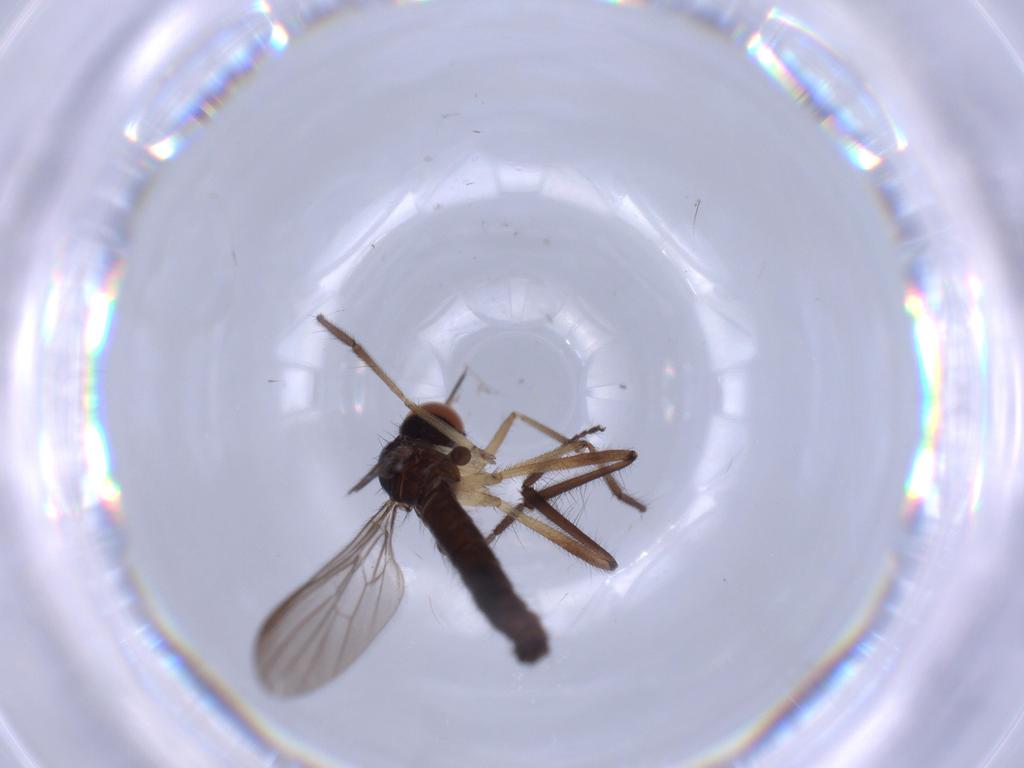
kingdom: Animalia
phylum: Arthropoda
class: Insecta
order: Diptera
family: Empididae
